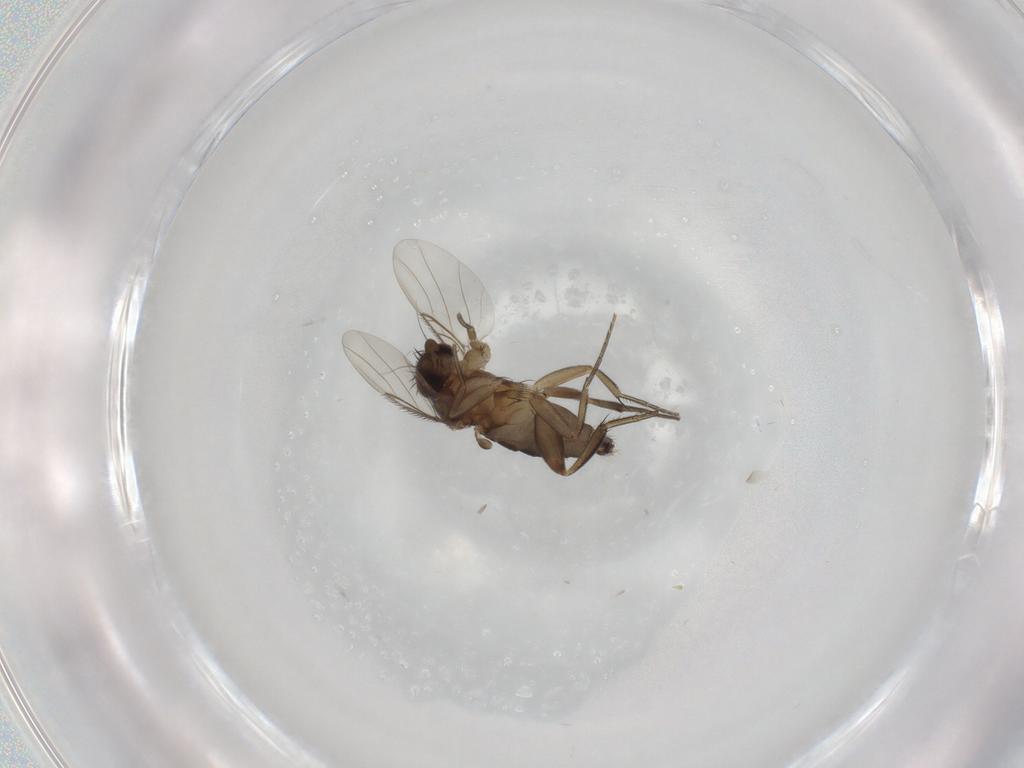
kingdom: Animalia
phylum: Arthropoda
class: Insecta
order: Diptera
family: Phoridae
